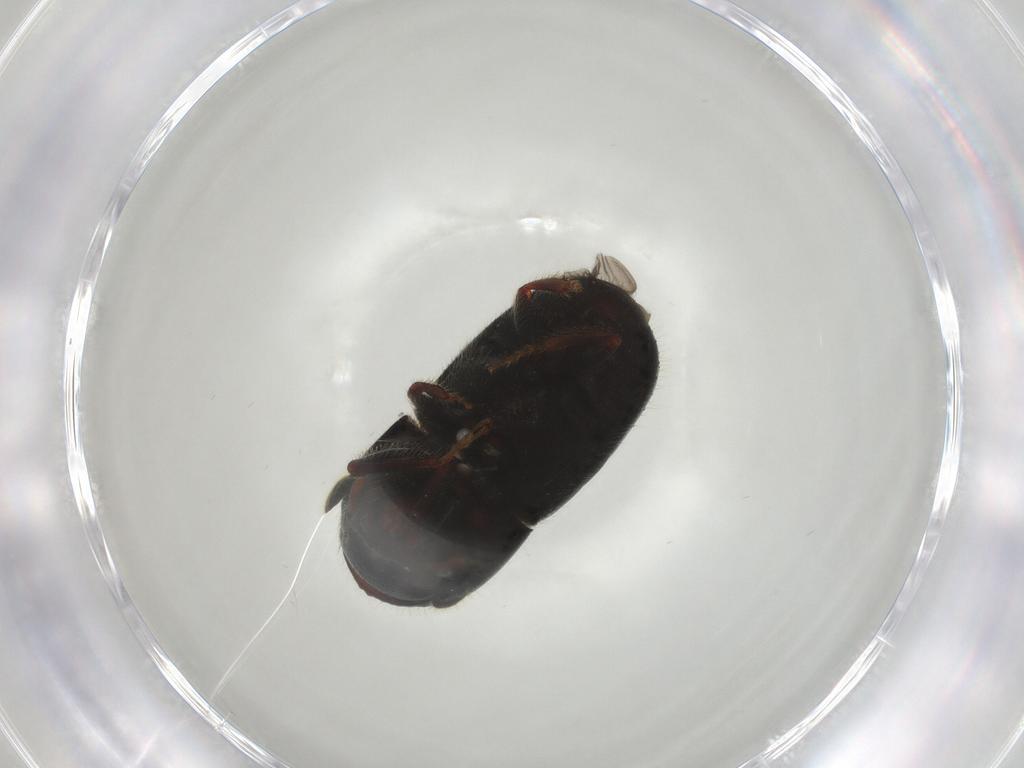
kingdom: Animalia
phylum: Arthropoda
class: Insecta
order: Coleoptera
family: Curculionidae
